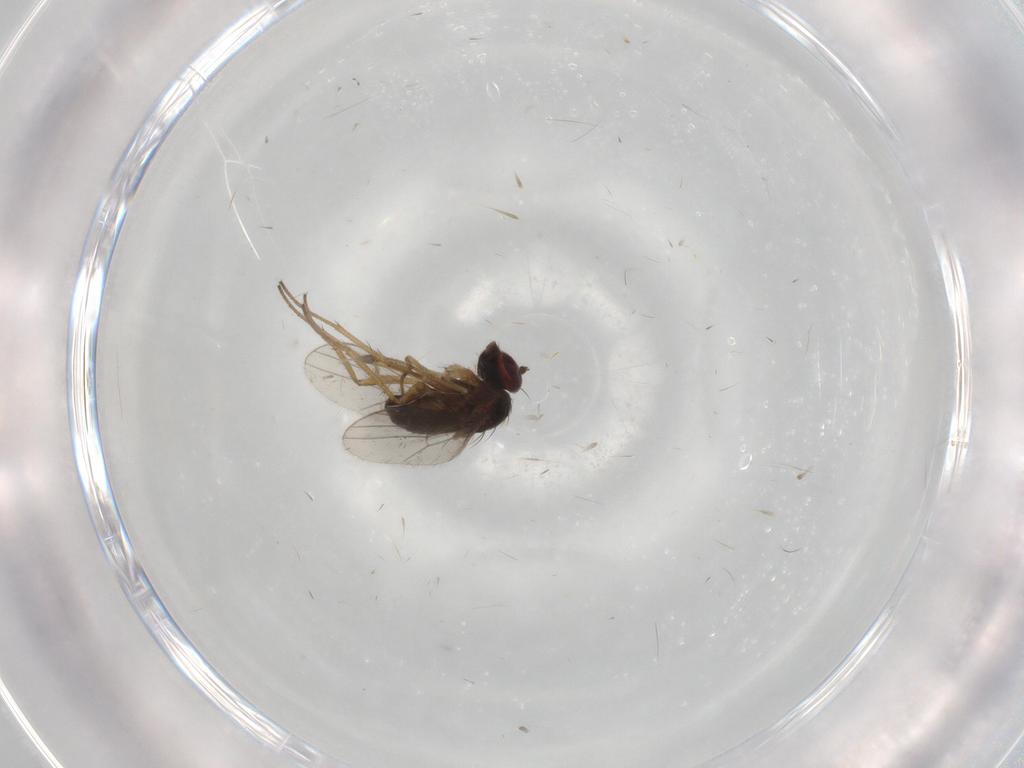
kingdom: Animalia
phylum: Arthropoda
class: Insecta
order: Diptera
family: Dolichopodidae
